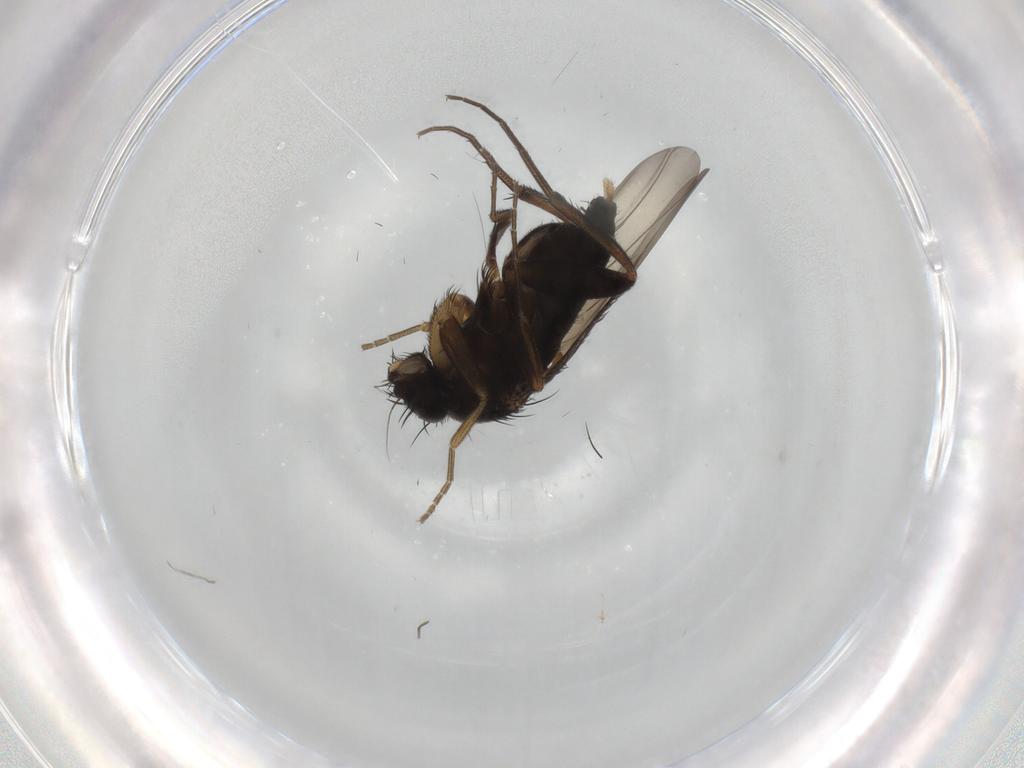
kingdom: Animalia
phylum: Arthropoda
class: Insecta
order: Diptera
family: Phoridae
